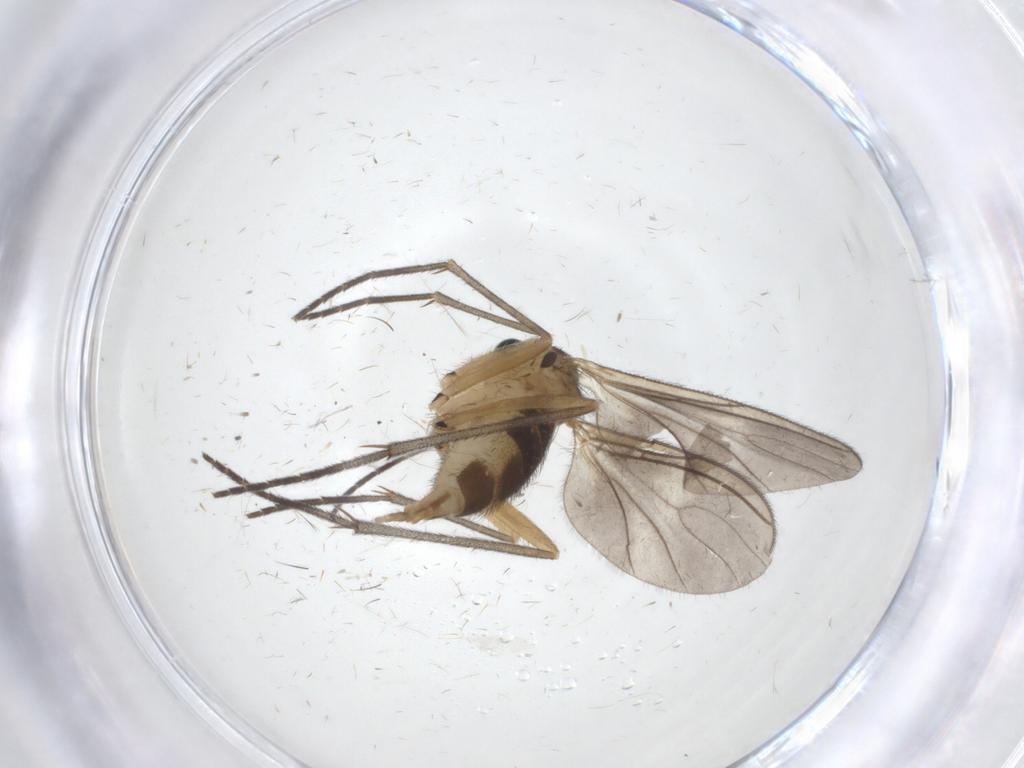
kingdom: Animalia
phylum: Arthropoda
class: Insecta
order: Diptera
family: Sciaridae
